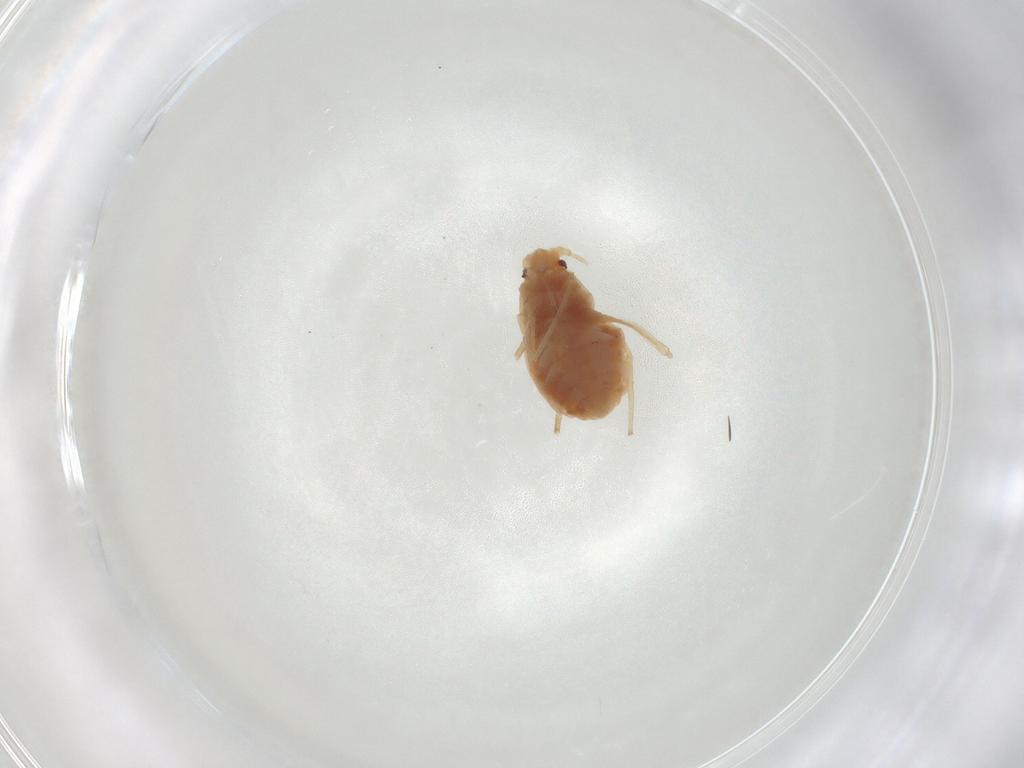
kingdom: Animalia
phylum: Arthropoda
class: Insecta
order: Hemiptera
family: Aphididae
